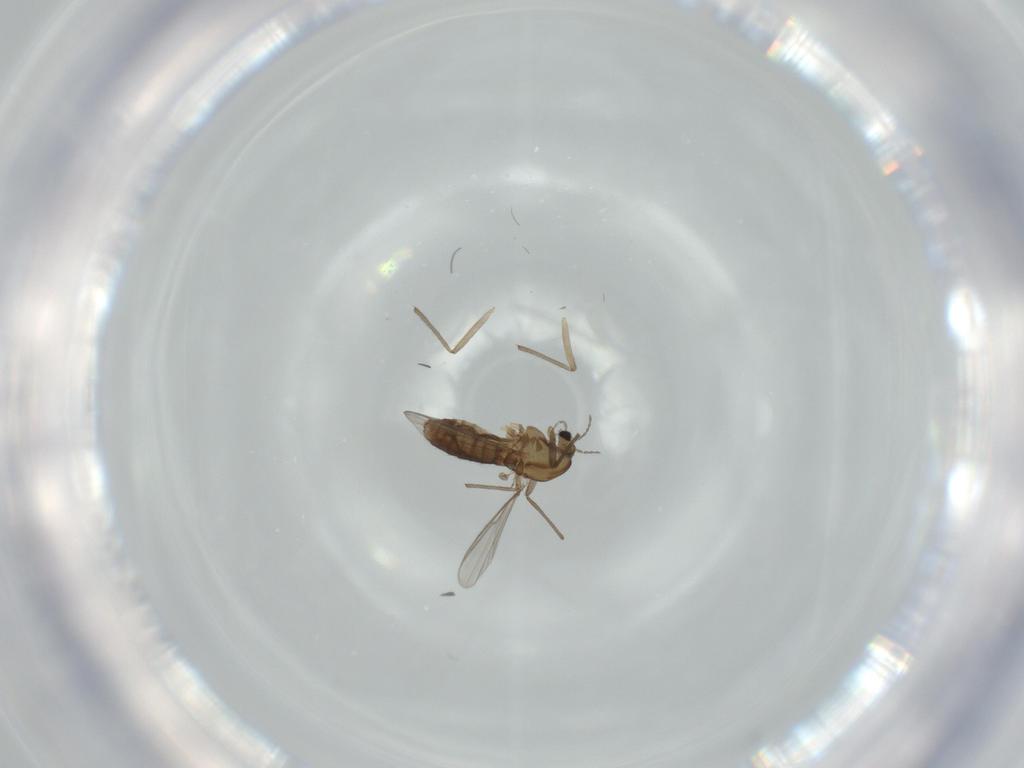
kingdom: Animalia
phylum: Arthropoda
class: Insecta
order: Diptera
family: Chironomidae
